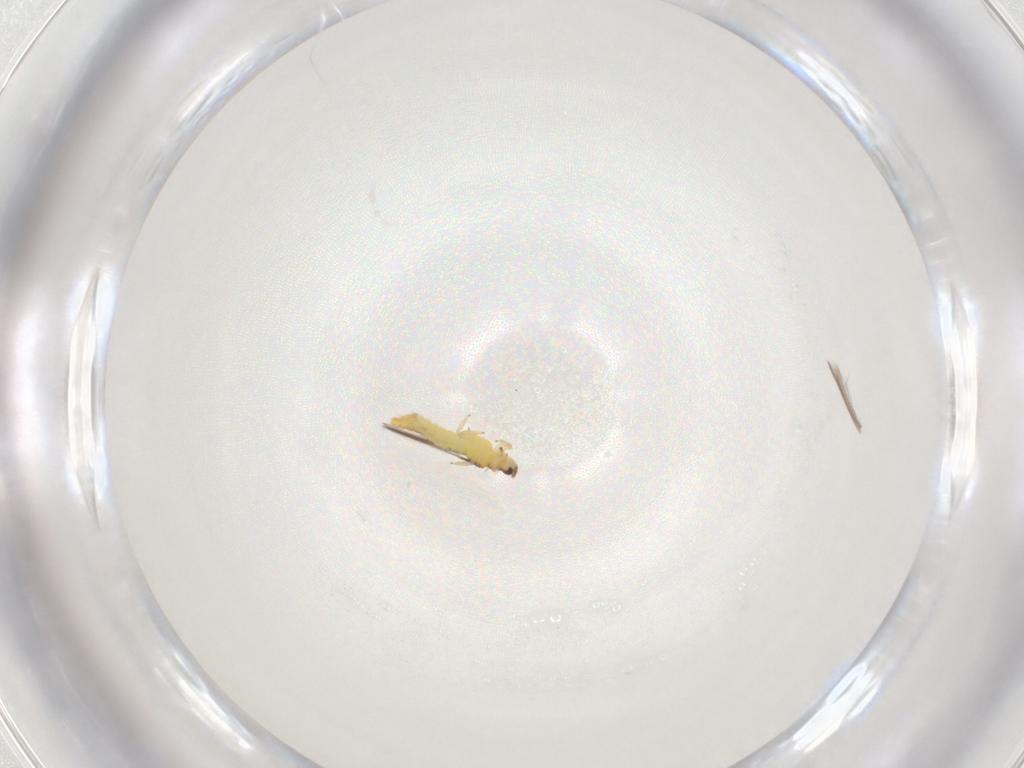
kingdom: Animalia
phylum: Arthropoda
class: Arachnida
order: Araneae
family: Linyphiidae
